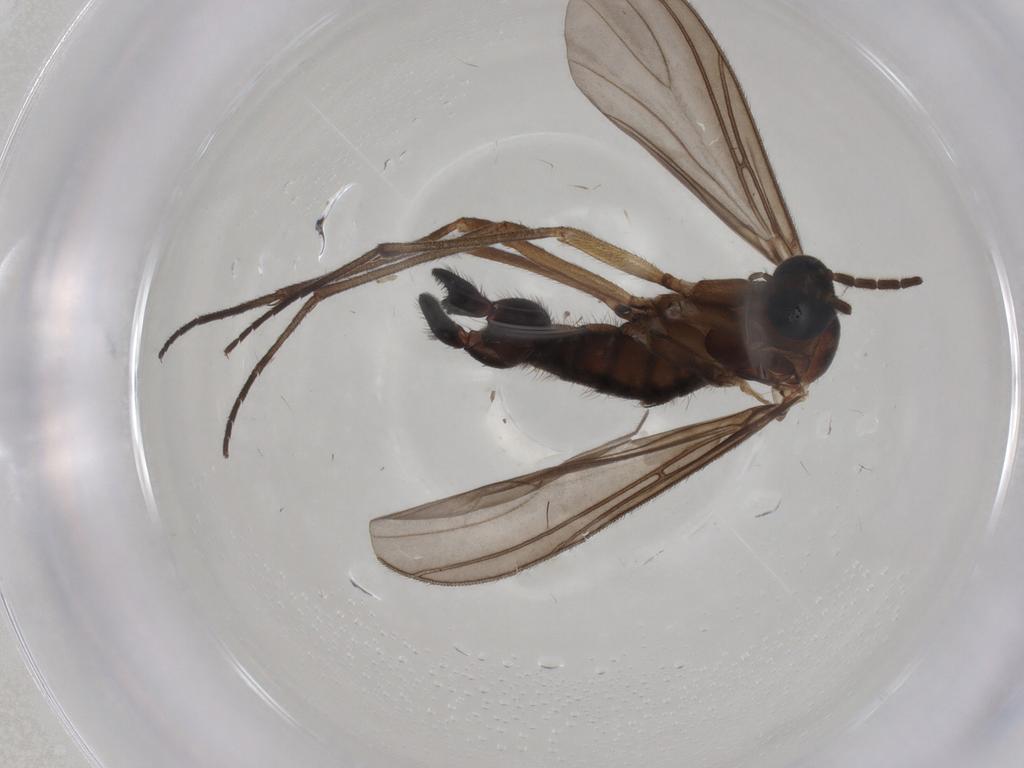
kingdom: Animalia
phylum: Arthropoda
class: Insecta
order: Diptera
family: Sciaridae
